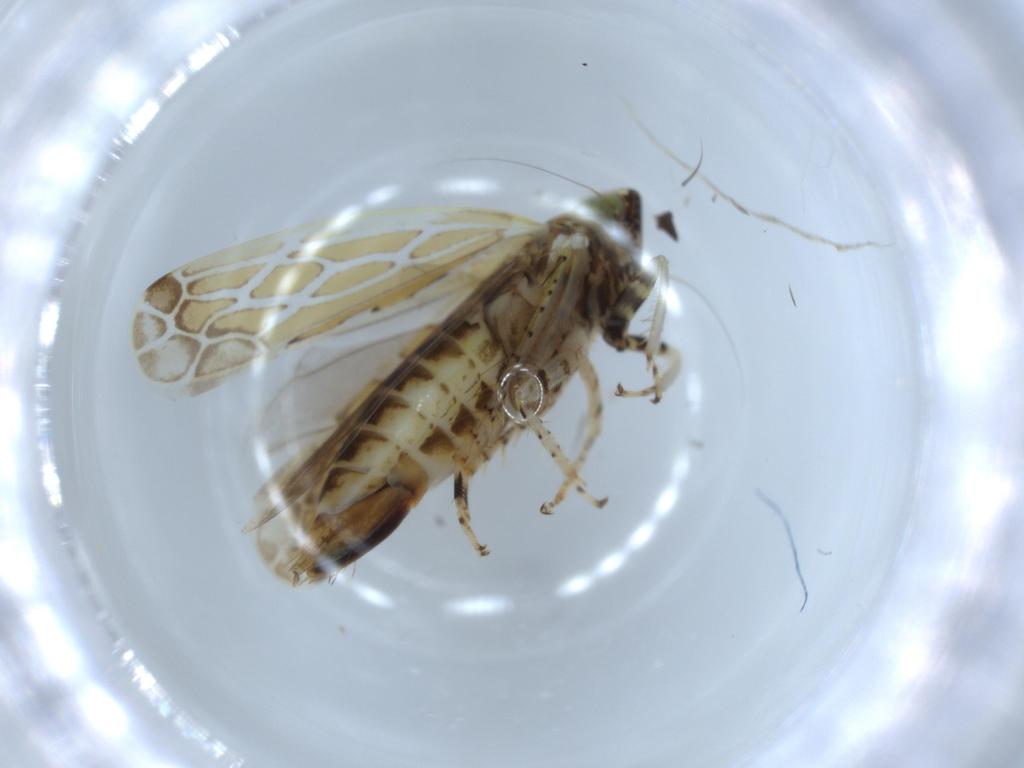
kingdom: Animalia
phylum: Arthropoda
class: Insecta
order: Hemiptera
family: Cicadellidae
